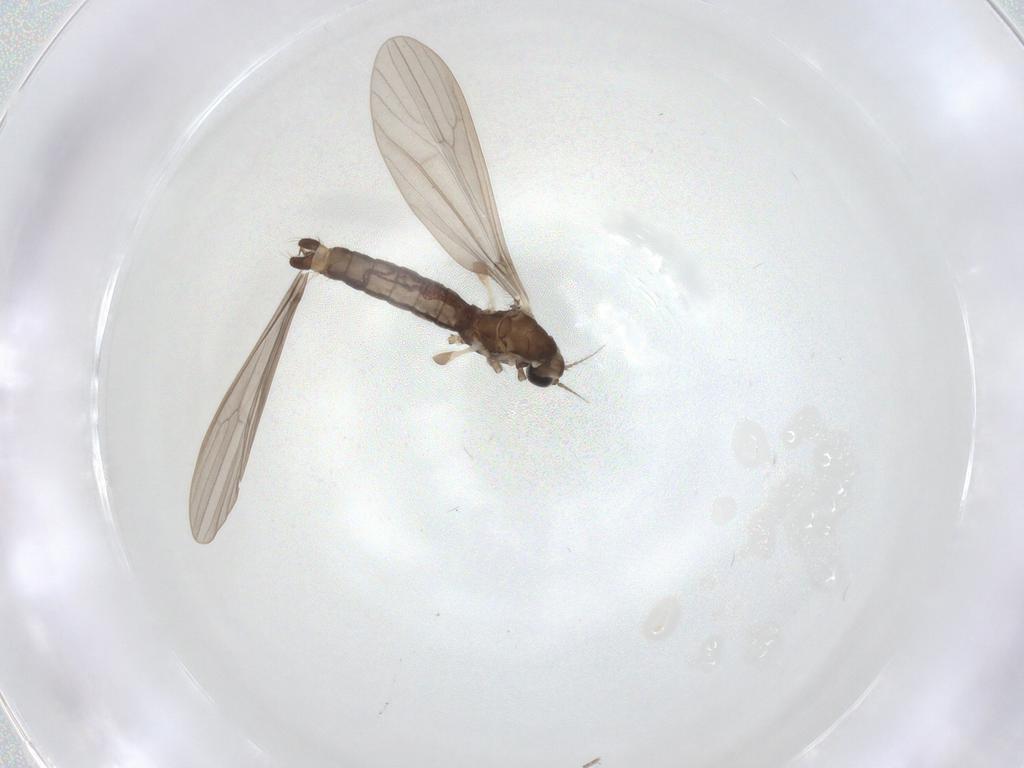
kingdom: Animalia
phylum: Arthropoda
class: Insecta
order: Diptera
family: Limoniidae
